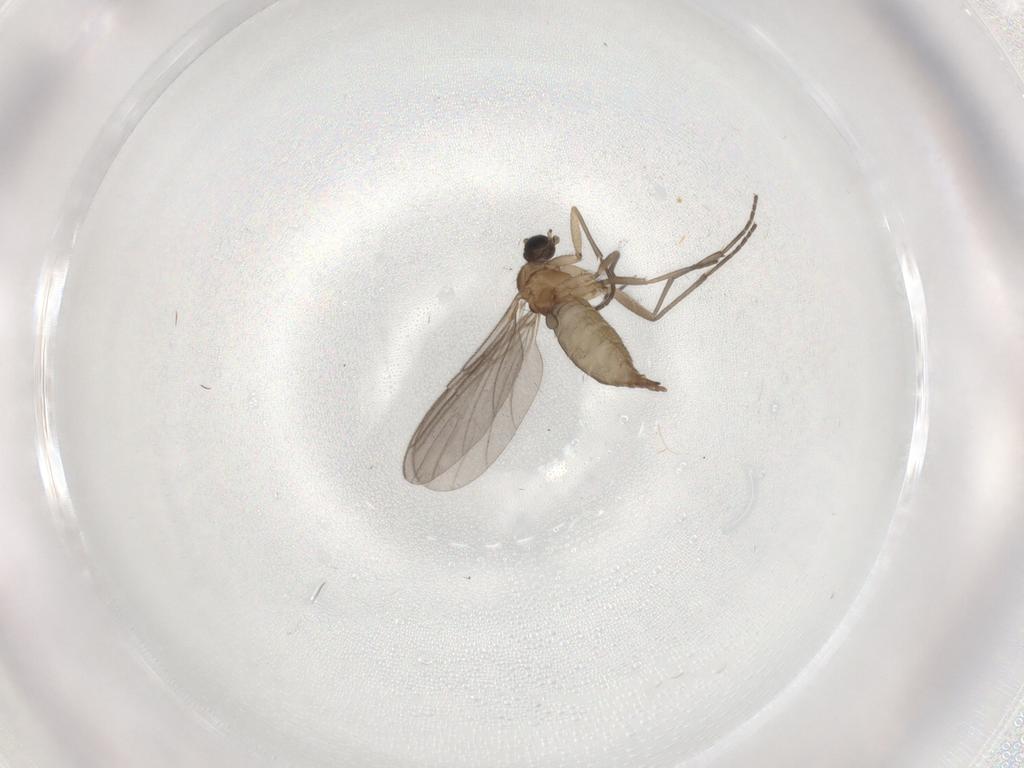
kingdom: Animalia
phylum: Arthropoda
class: Insecta
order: Diptera
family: Sciaridae
